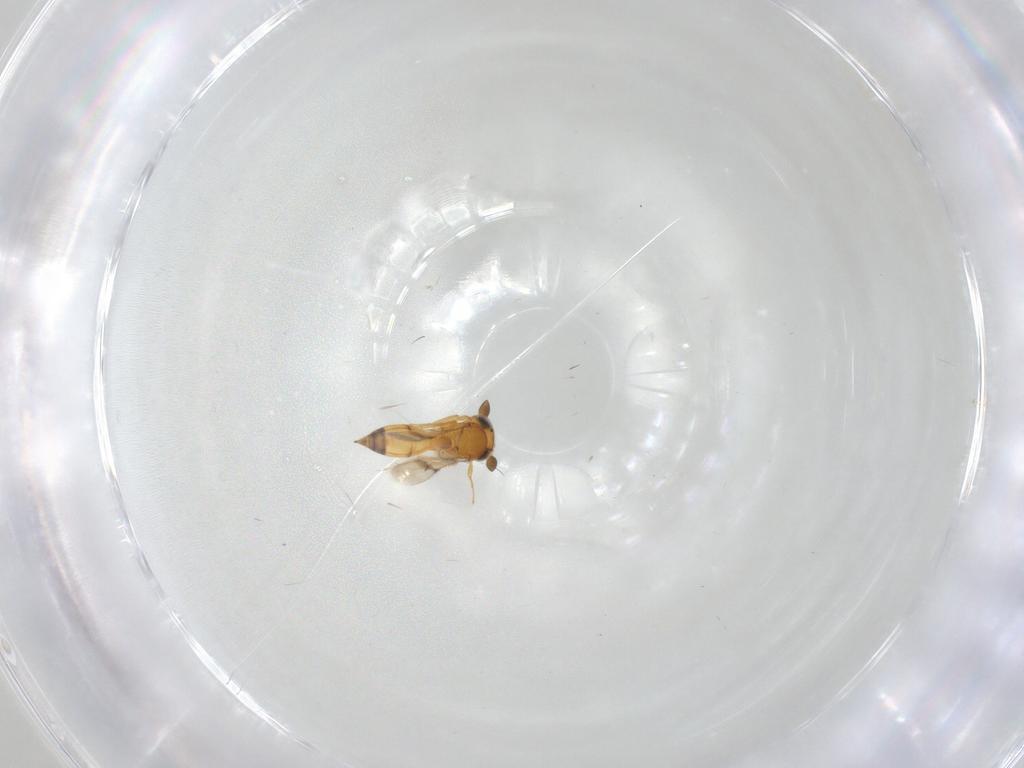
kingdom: Animalia
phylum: Arthropoda
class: Insecta
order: Hymenoptera
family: Scelionidae
